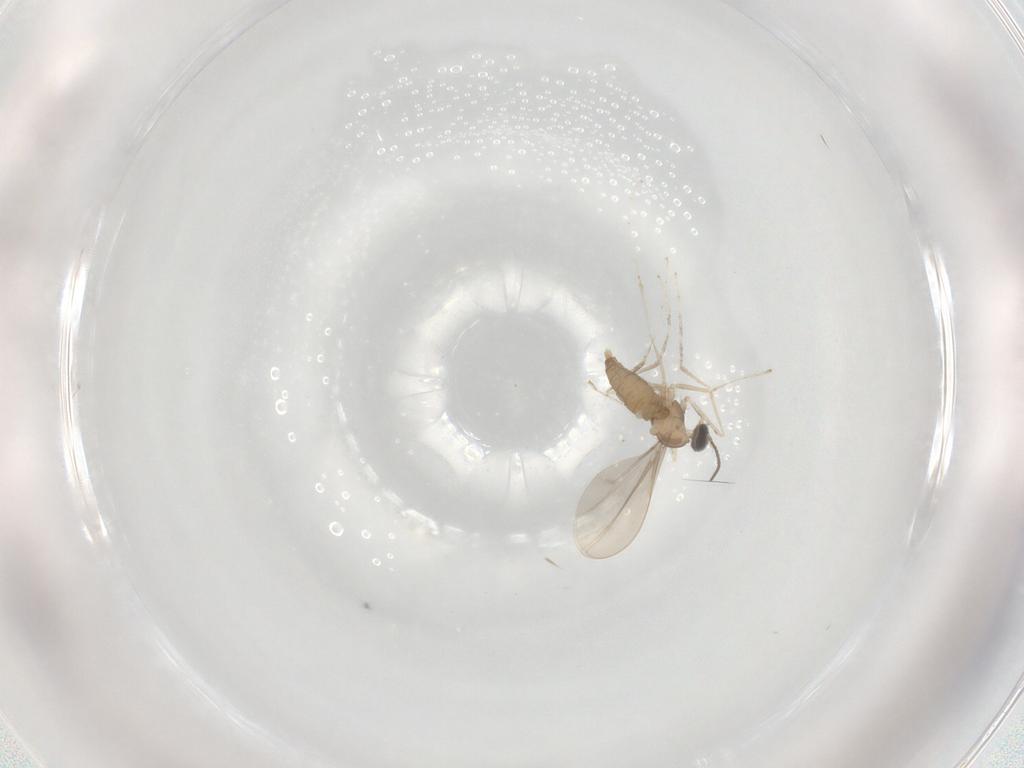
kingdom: Animalia
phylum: Arthropoda
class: Insecta
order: Diptera
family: Cecidomyiidae
